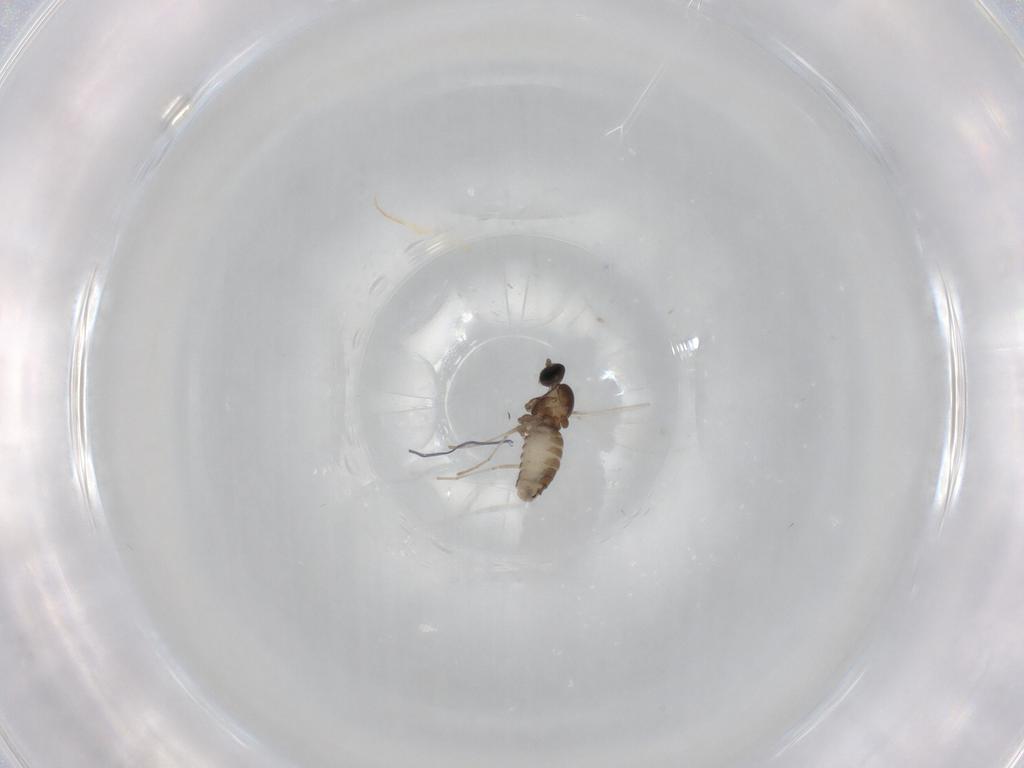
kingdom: Animalia
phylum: Arthropoda
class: Insecta
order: Diptera
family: Cecidomyiidae
